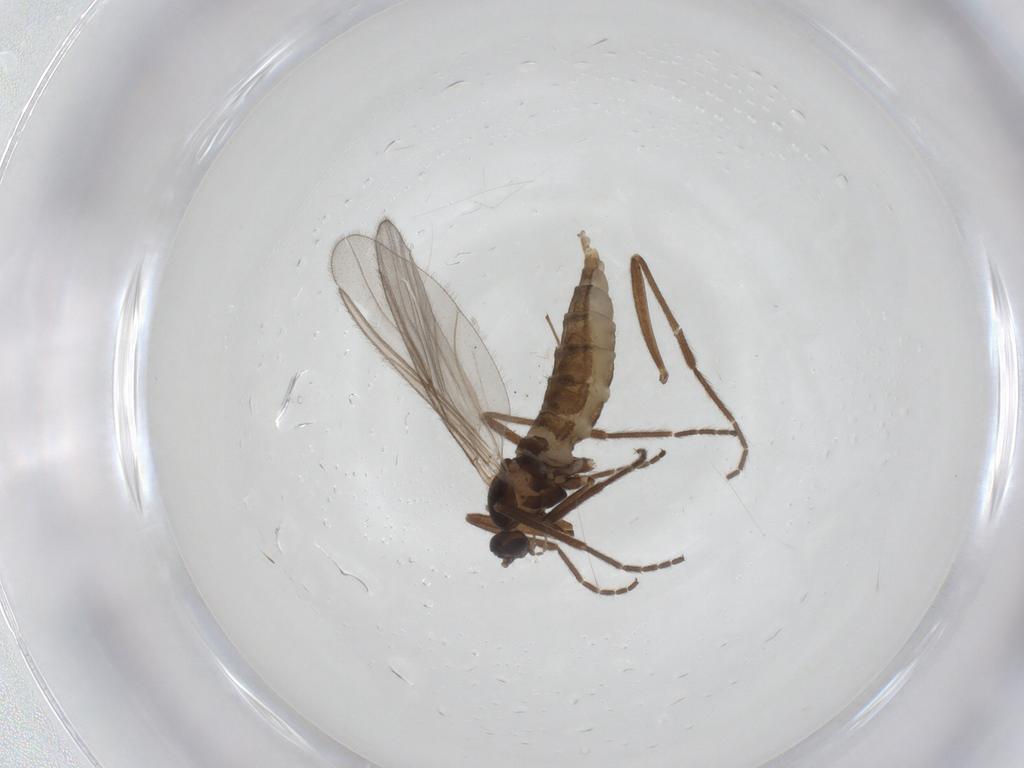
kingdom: Animalia
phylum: Arthropoda
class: Insecta
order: Diptera
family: Cecidomyiidae
